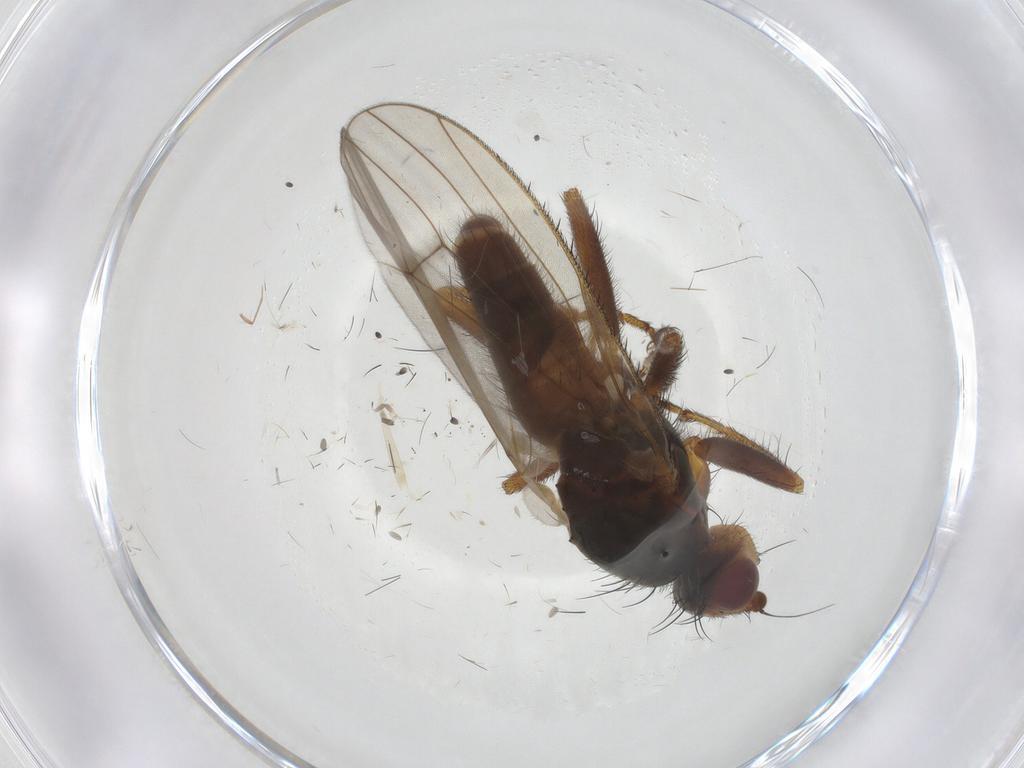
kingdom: Animalia
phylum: Arthropoda
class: Insecta
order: Diptera
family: Heleomyzidae
